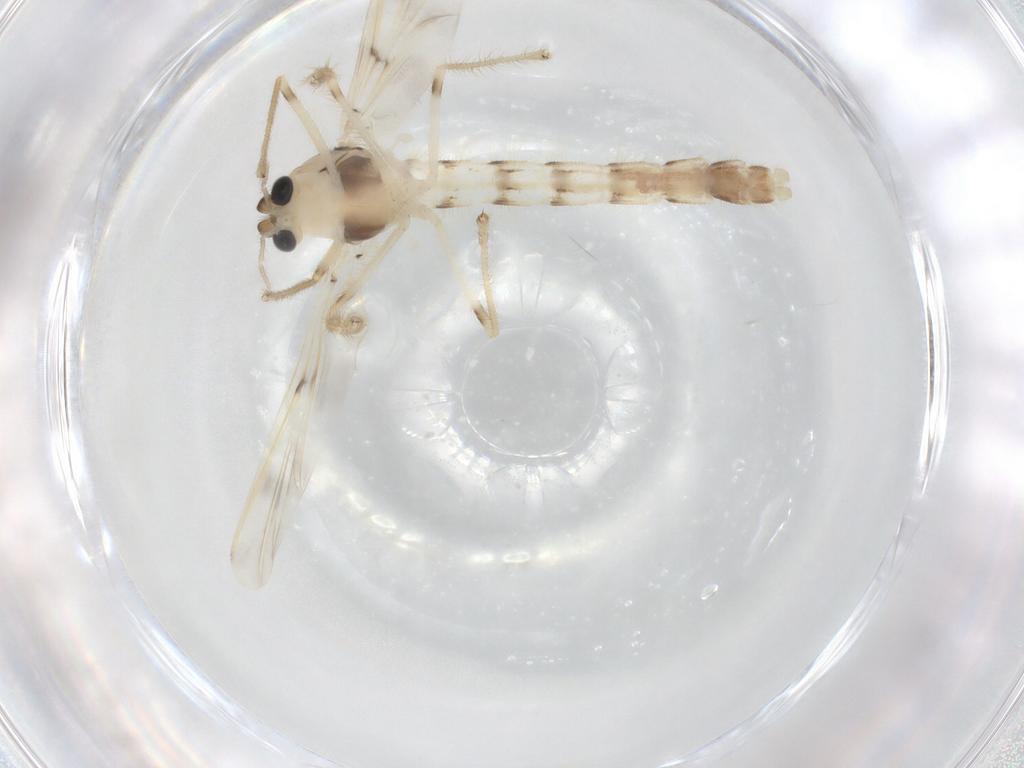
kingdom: Animalia
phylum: Arthropoda
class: Insecta
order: Diptera
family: Chironomidae
